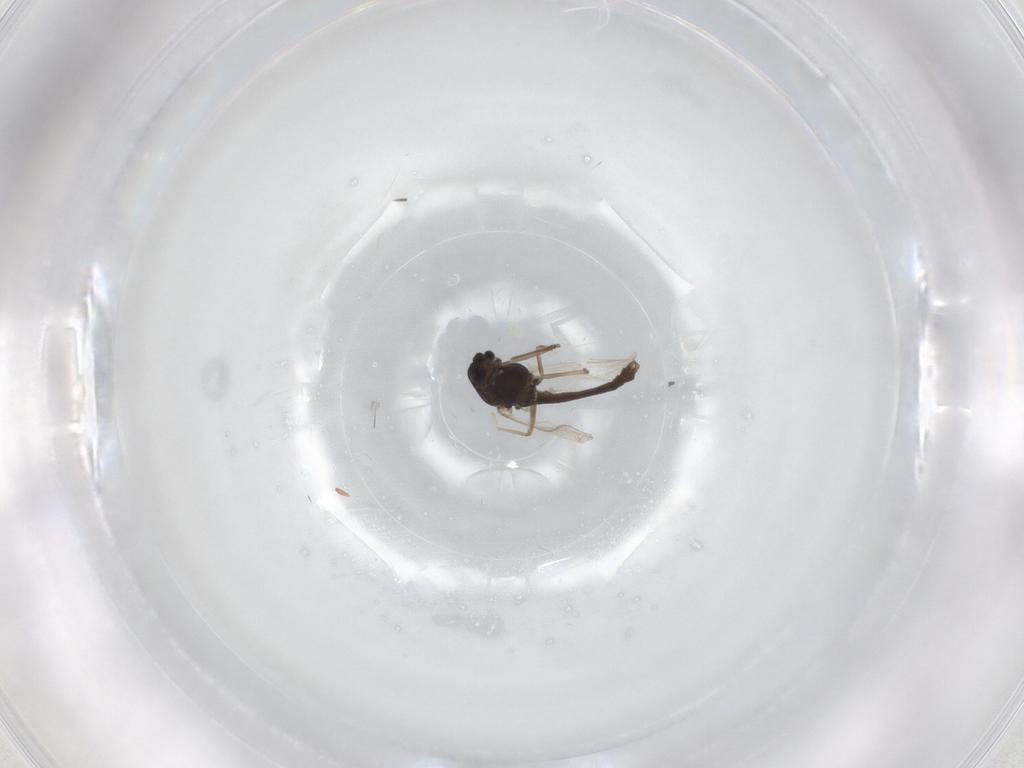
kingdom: Animalia
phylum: Arthropoda
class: Insecta
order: Diptera
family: Chironomidae
